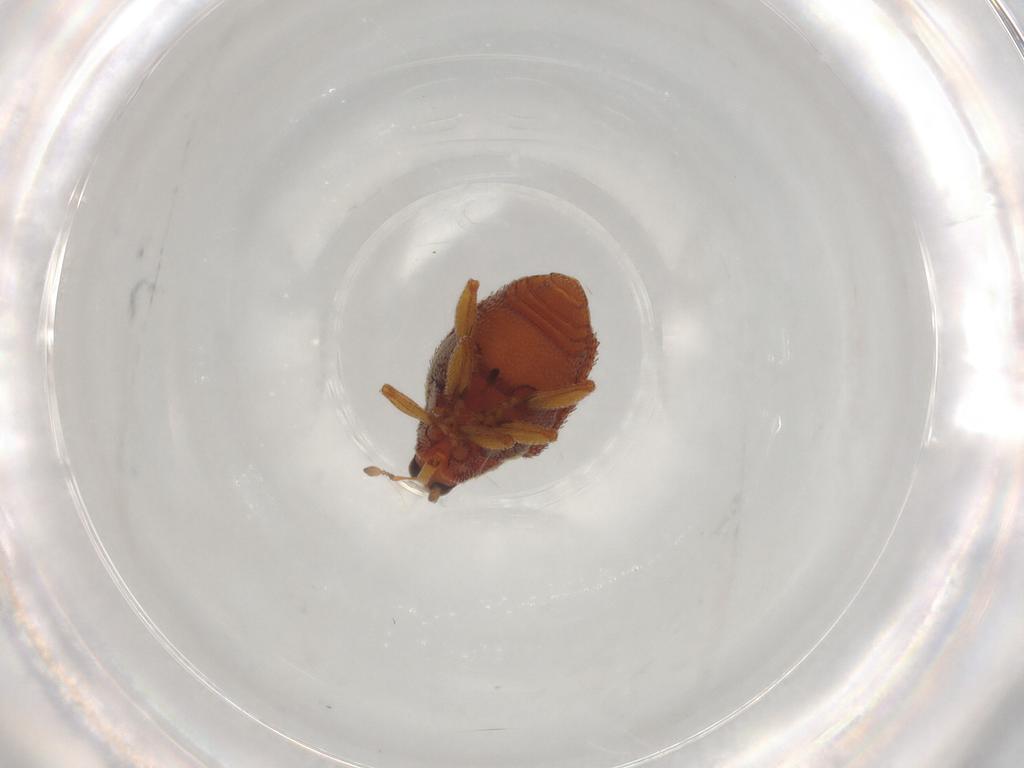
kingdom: Animalia
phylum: Arthropoda
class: Insecta
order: Coleoptera
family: Curculionidae
